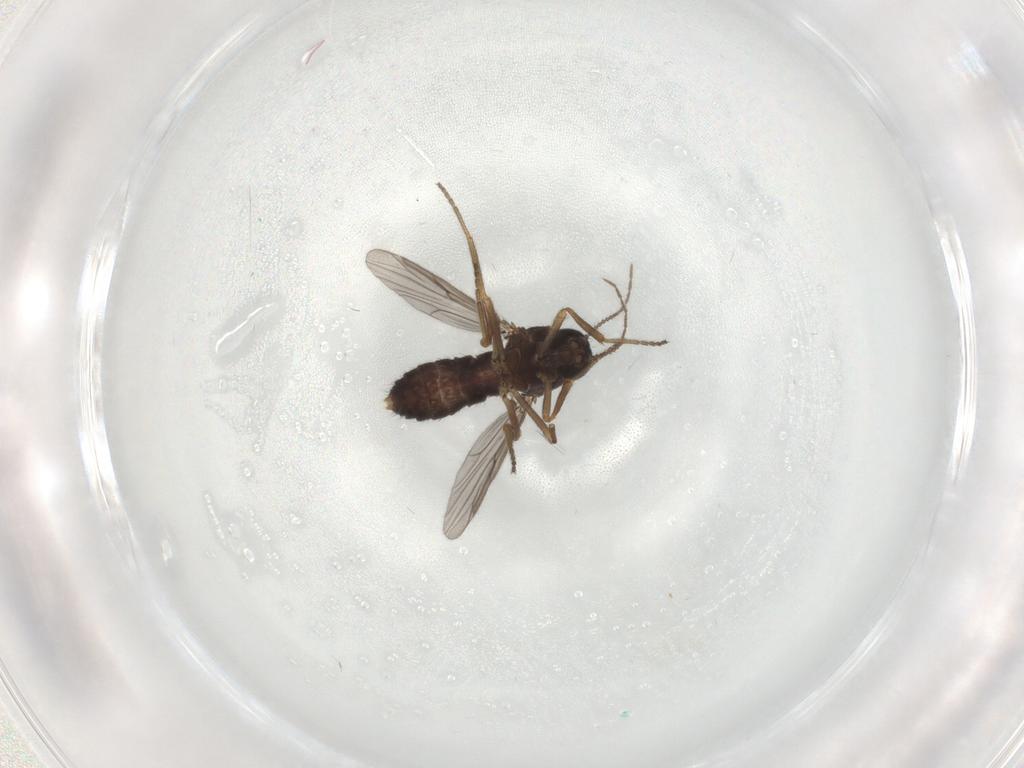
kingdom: Animalia
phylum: Arthropoda
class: Insecta
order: Diptera
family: Ceratopogonidae
